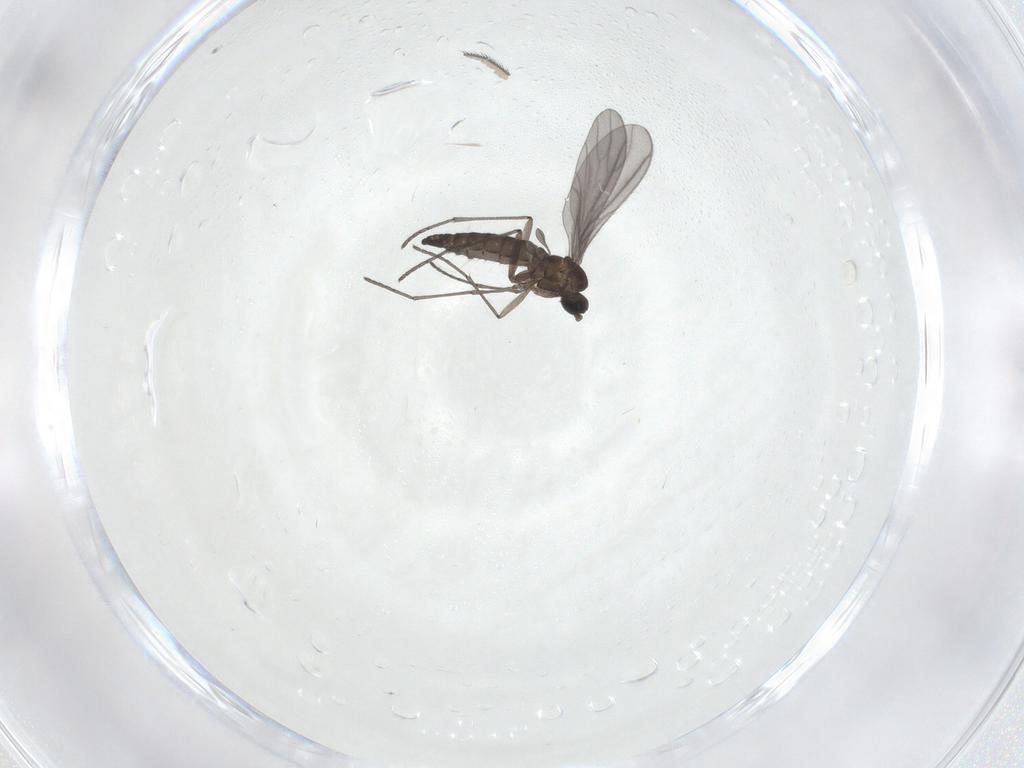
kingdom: Animalia
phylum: Arthropoda
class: Insecta
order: Diptera
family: Sciaridae
